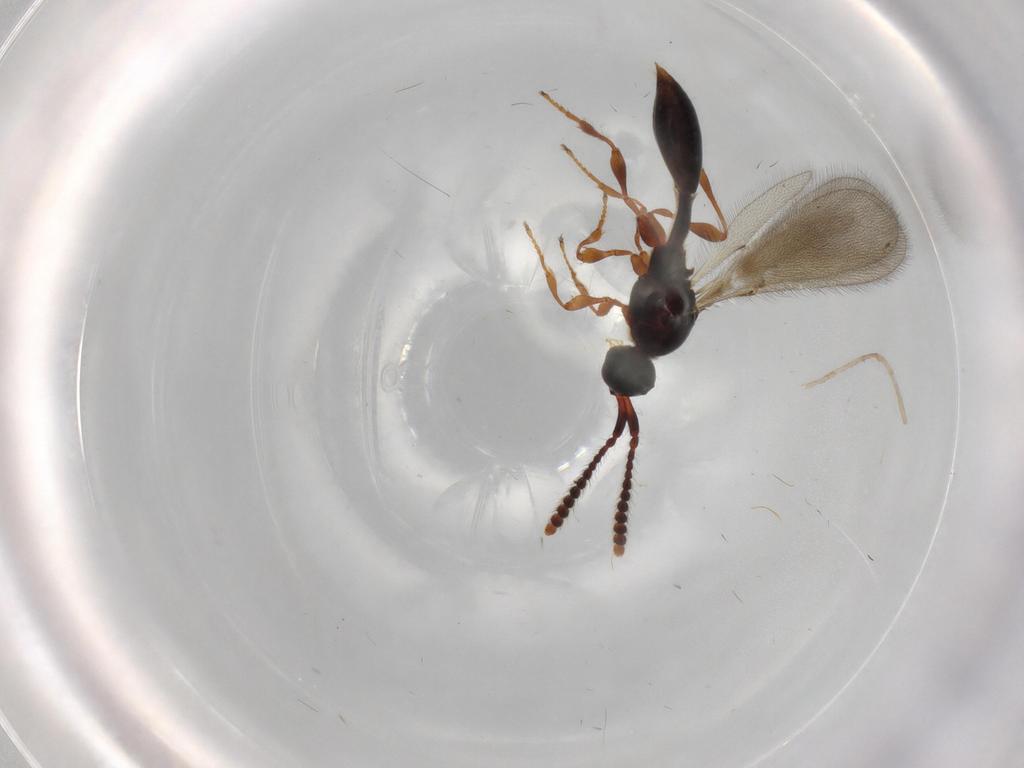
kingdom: Animalia
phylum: Arthropoda
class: Insecta
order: Hymenoptera
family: Diapriidae
